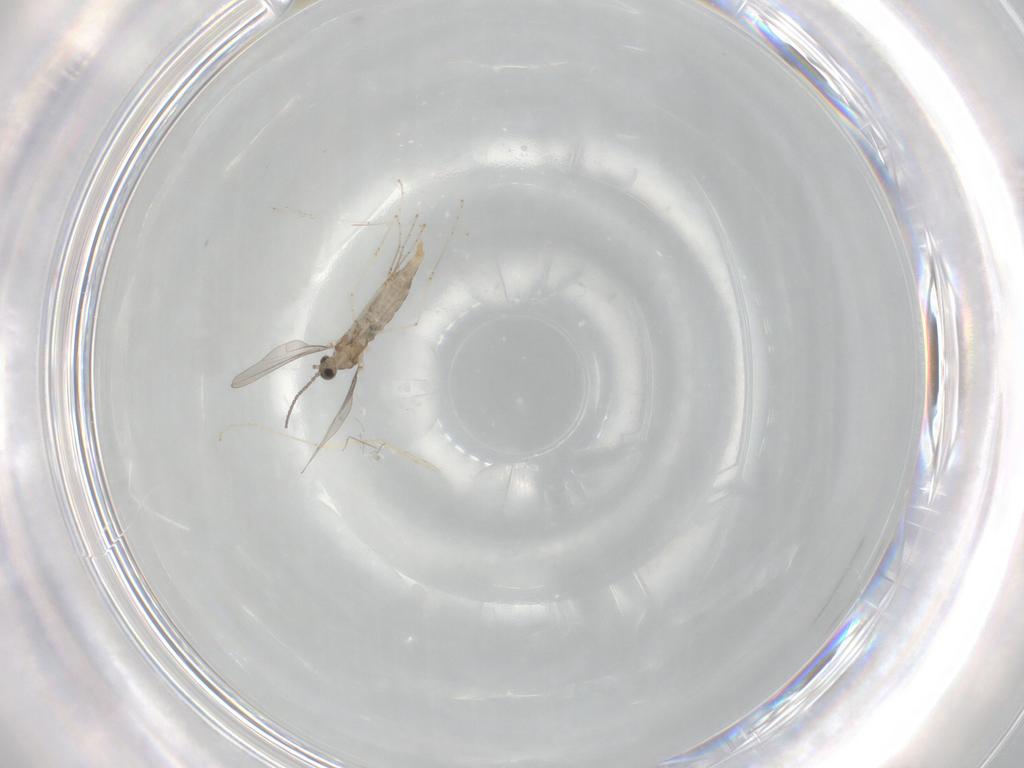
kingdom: Animalia
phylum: Arthropoda
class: Insecta
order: Diptera
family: Cecidomyiidae
